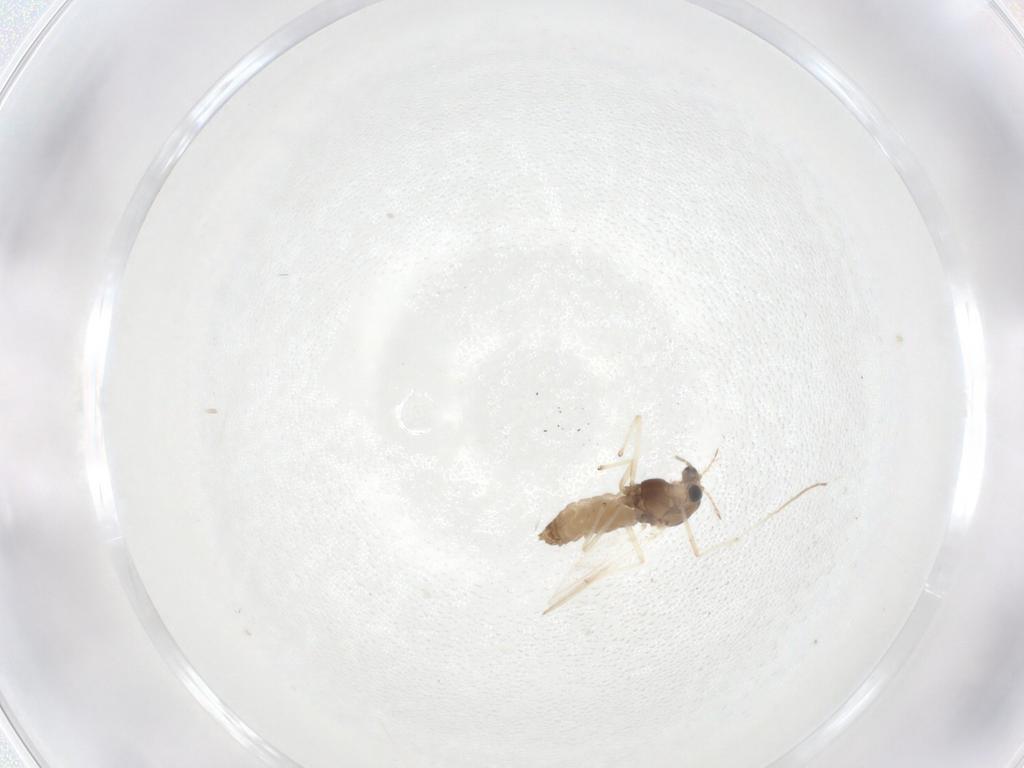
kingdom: Animalia
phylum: Arthropoda
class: Insecta
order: Diptera
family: Chironomidae
